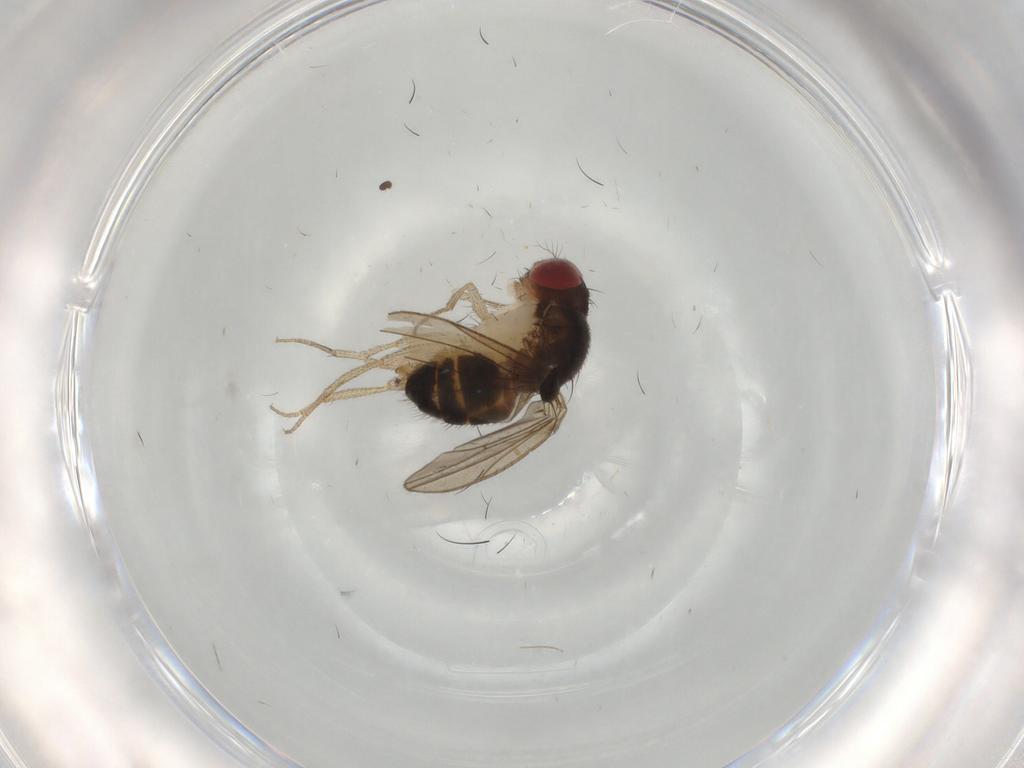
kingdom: Animalia
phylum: Arthropoda
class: Insecta
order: Diptera
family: Drosophilidae
